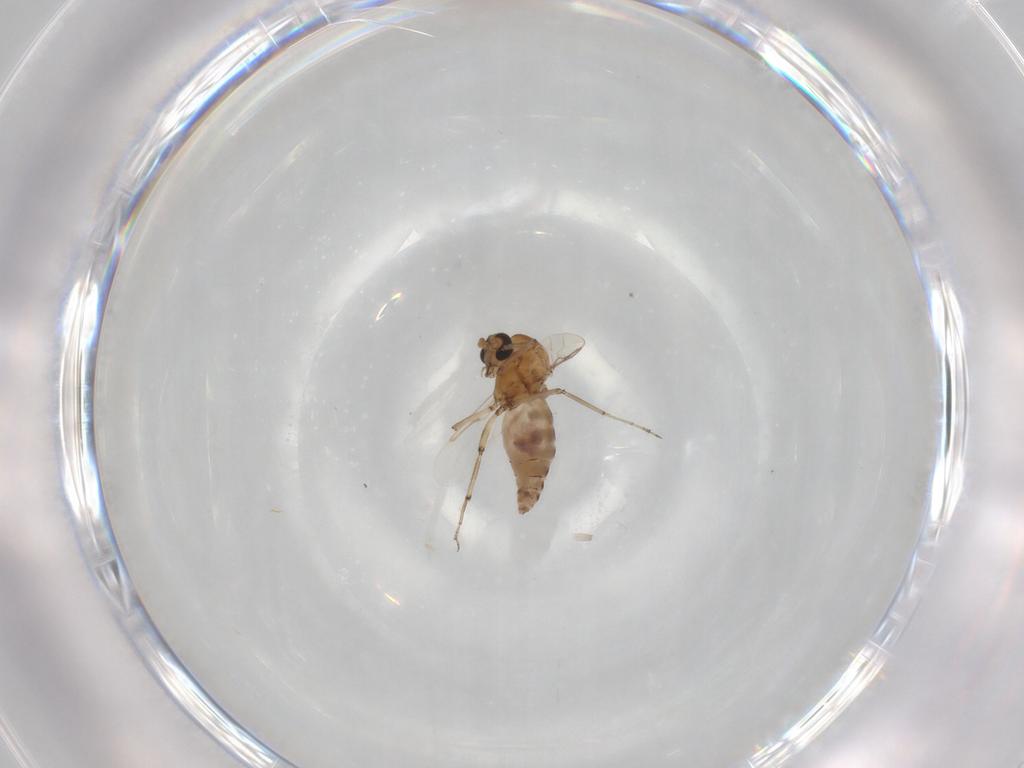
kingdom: Animalia
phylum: Arthropoda
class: Insecta
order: Diptera
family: Ceratopogonidae
